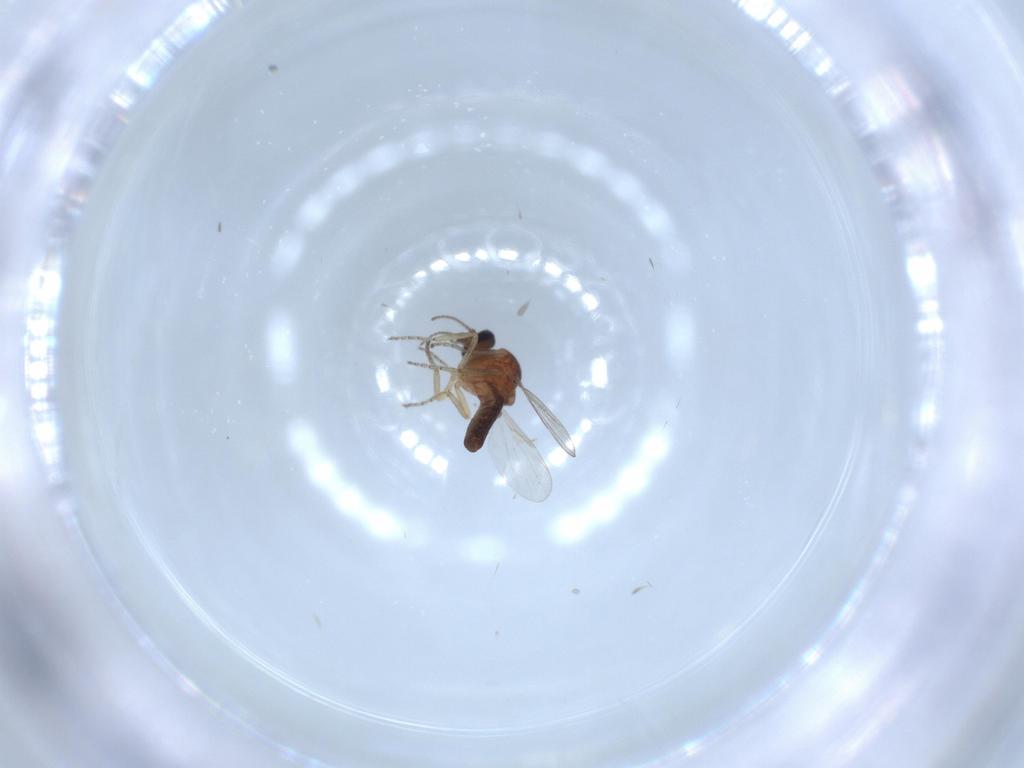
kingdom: Animalia
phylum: Arthropoda
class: Insecta
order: Diptera
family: Ceratopogonidae
